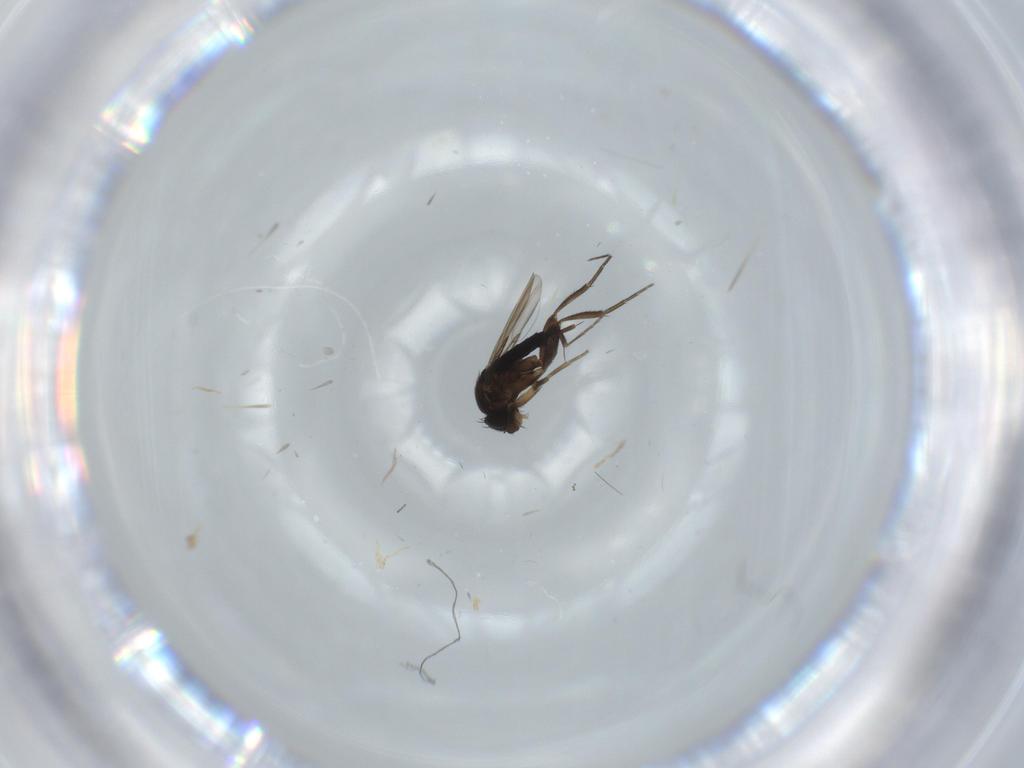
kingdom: Animalia
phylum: Arthropoda
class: Insecta
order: Diptera
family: Phoridae
